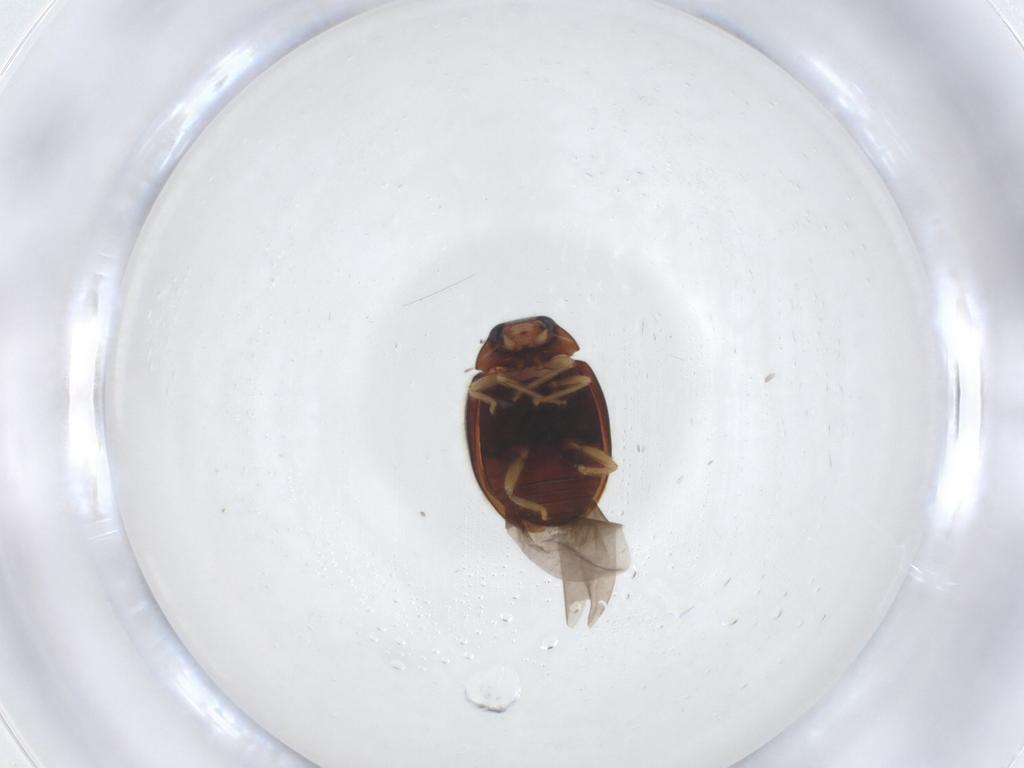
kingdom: Animalia
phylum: Arthropoda
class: Insecta
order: Coleoptera
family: Coccinellidae
